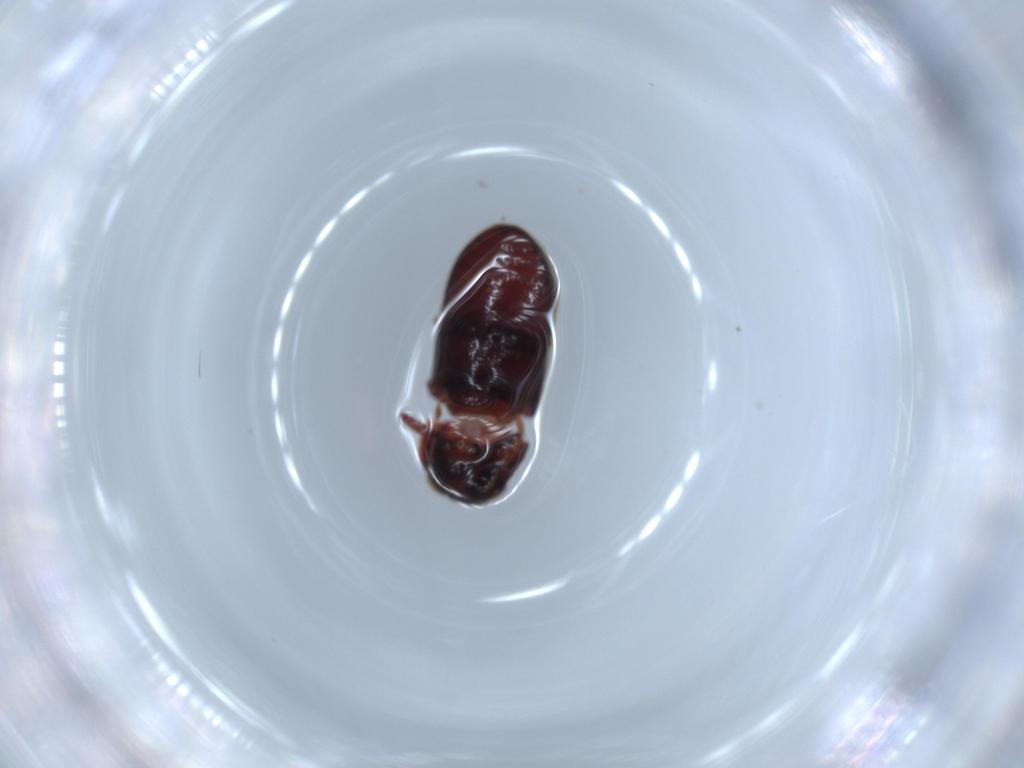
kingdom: Animalia
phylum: Arthropoda
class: Insecta
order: Coleoptera
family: Anobiidae
